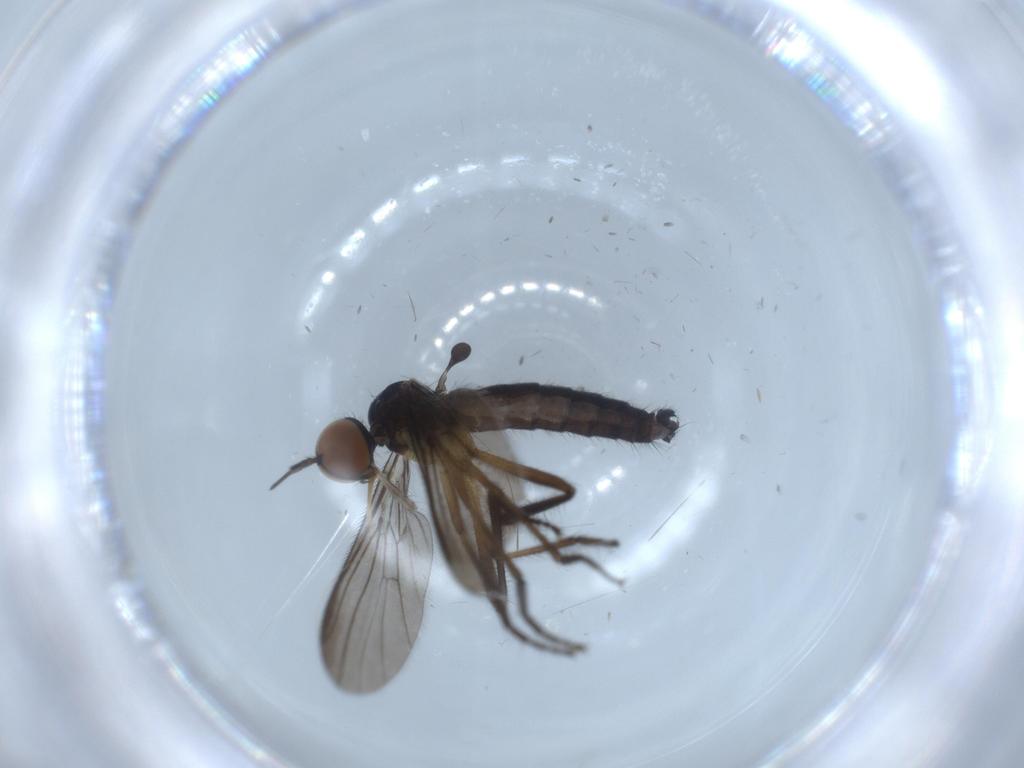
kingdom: Animalia
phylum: Arthropoda
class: Insecta
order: Diptera
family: Empididae
